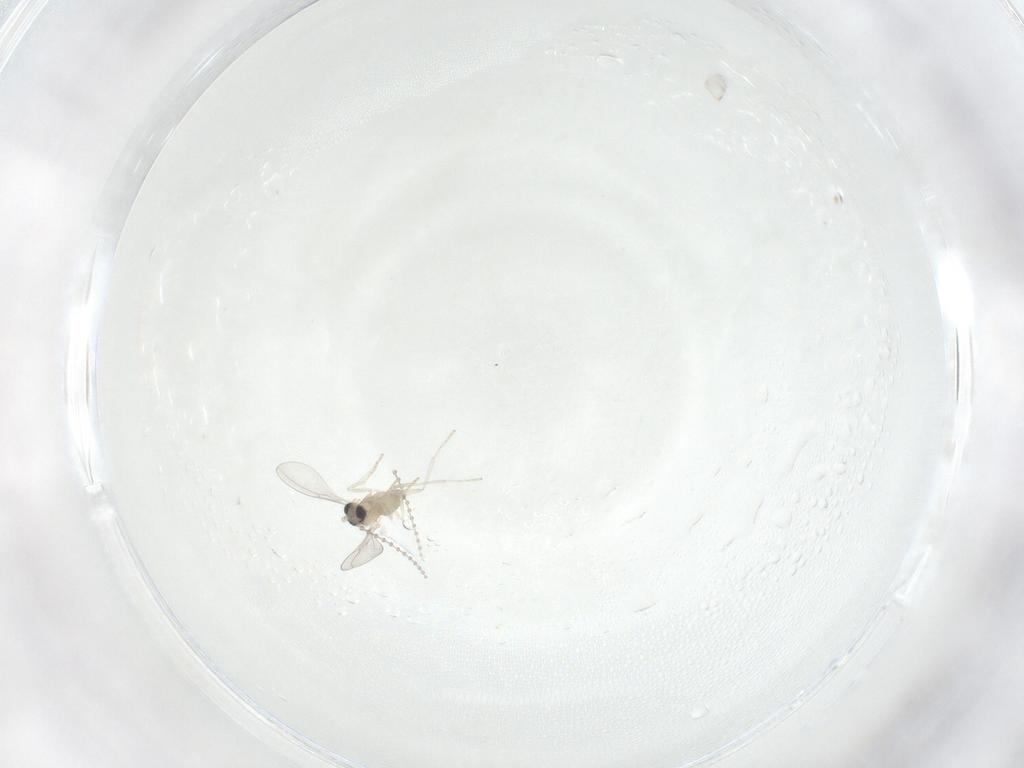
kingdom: Animalia
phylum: Arthropoda
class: Insecta
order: Diptera
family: Cecidomyiidae
